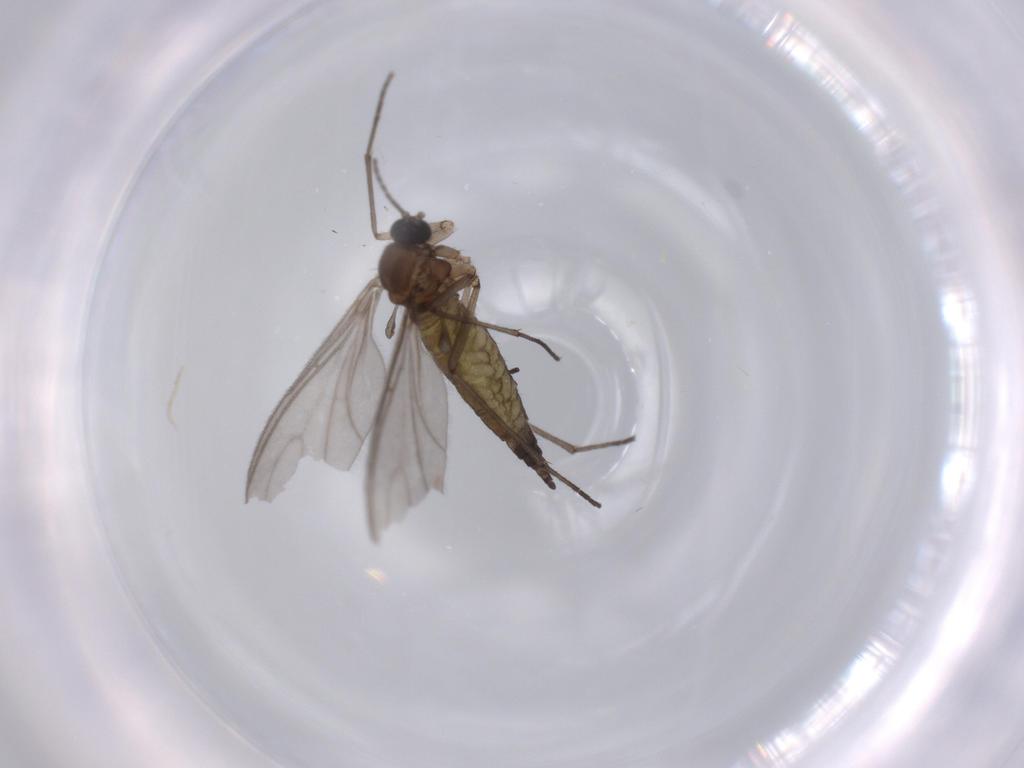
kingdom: Animalia
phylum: Arthropoda
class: Insecta
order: Diptera
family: Sciaridae
